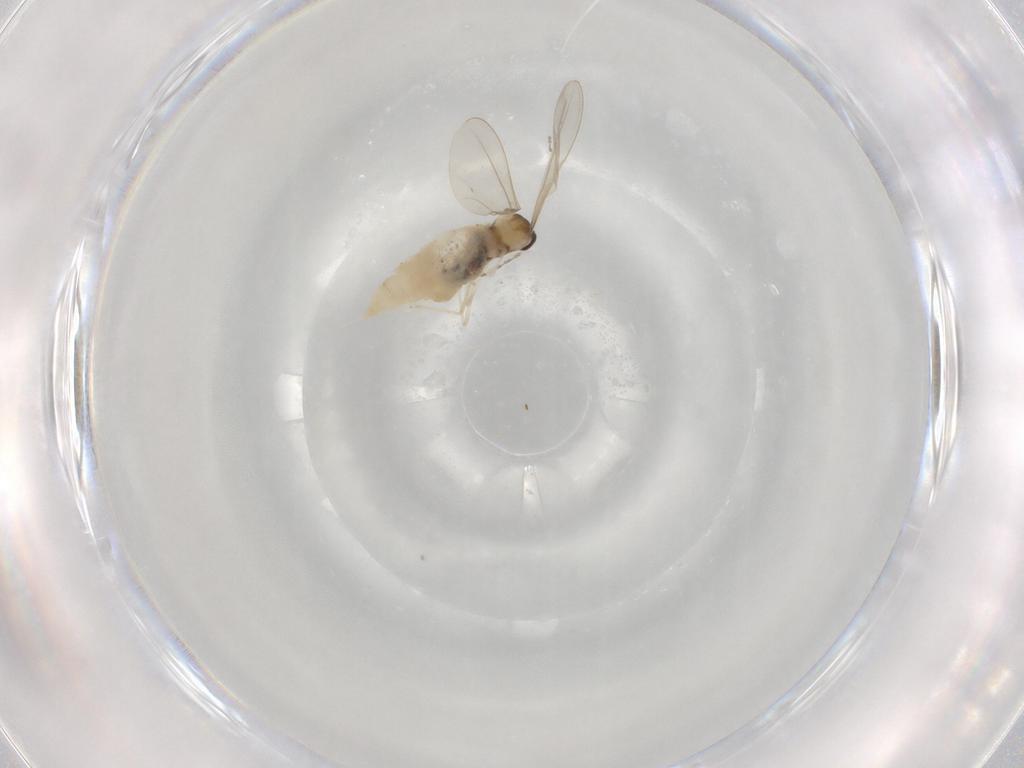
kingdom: Animalia
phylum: Arthropoda
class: Insecta
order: Diptera
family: Cecidomyiidae
